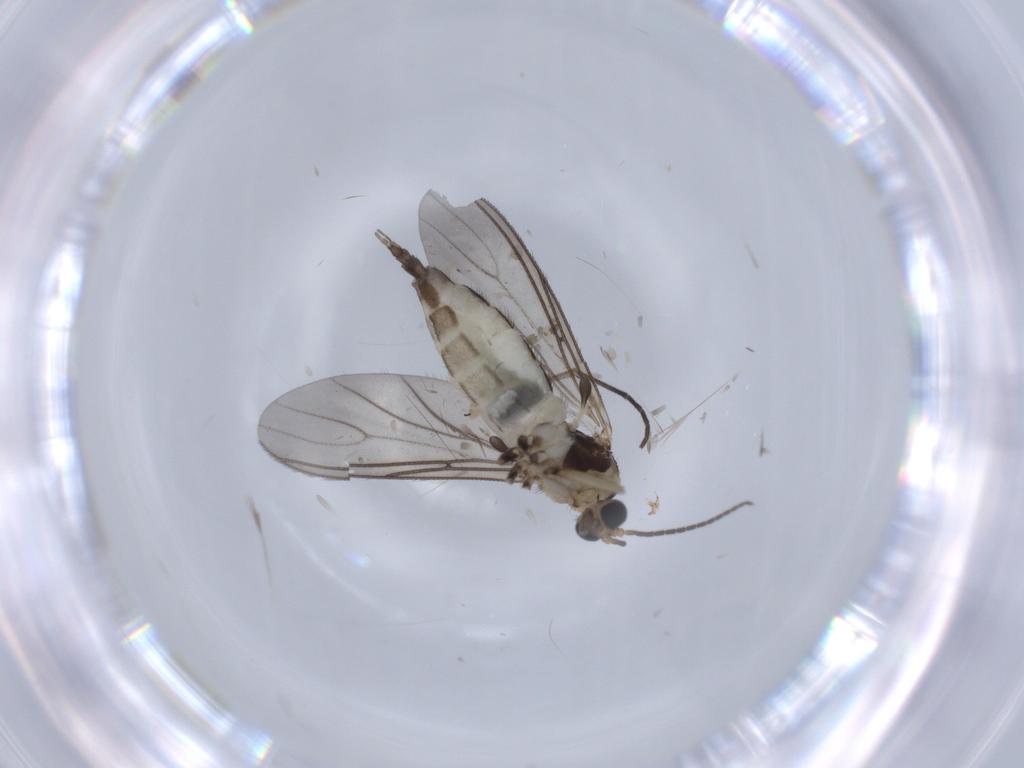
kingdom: Animalia
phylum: Arthropoda
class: Insecta
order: Diptera
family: Sciaridae
